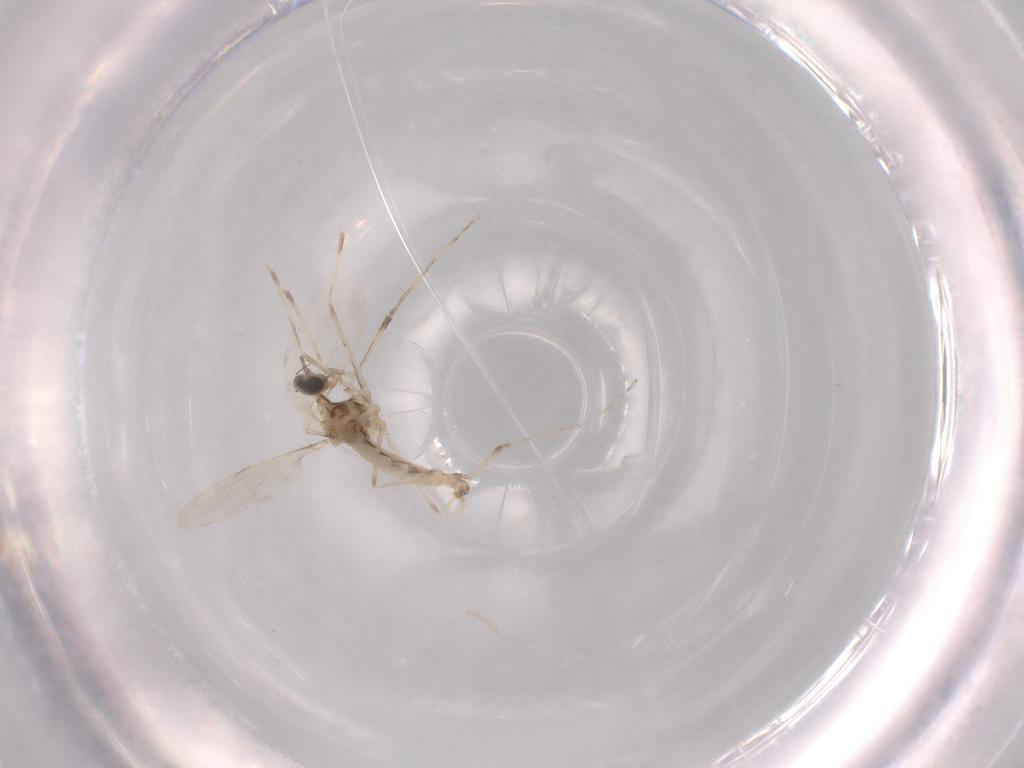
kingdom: Animalia
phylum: Arthropoda
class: Insecta
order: Diptera
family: Cecidomyiidae
